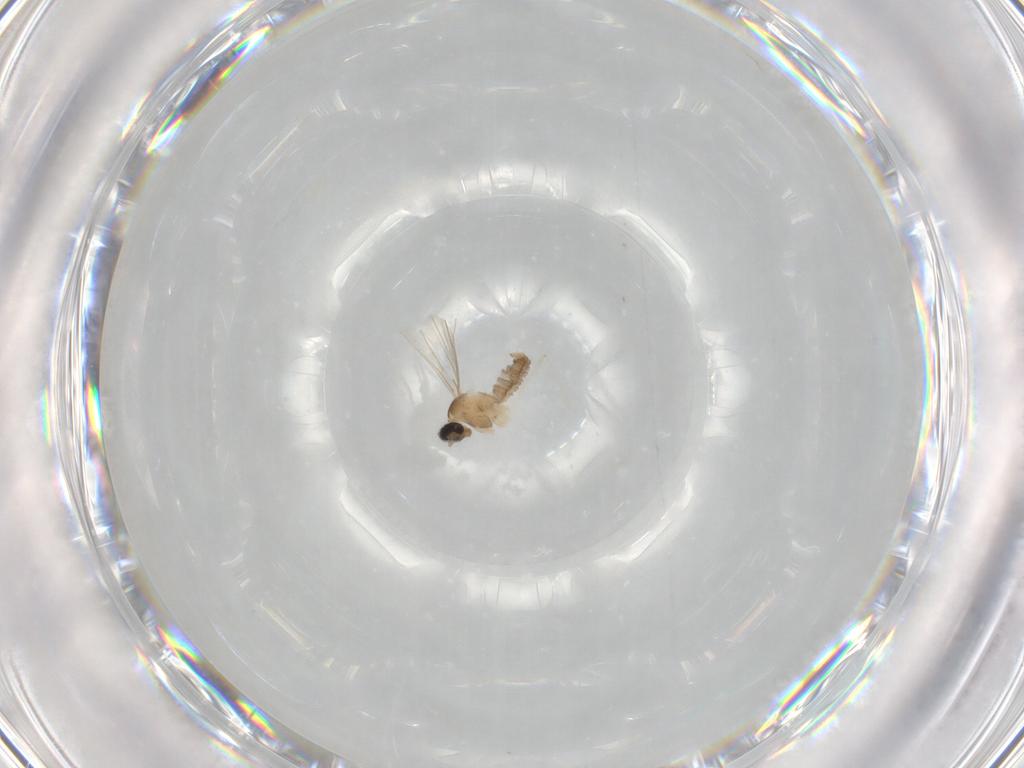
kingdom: Animalia
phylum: Arthropoda
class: Insecta
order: Diptera
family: Cecidomyiidae
